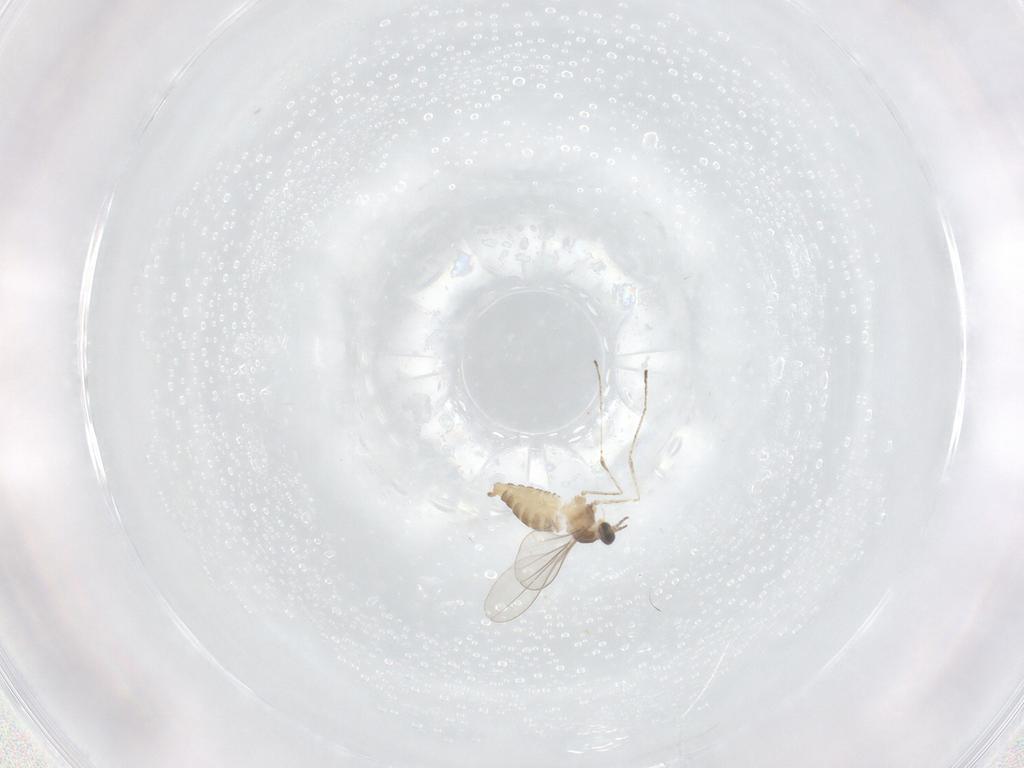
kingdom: Animalia
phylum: Arthropoda
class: Insecta
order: Diptera
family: Cecidomyiidae
